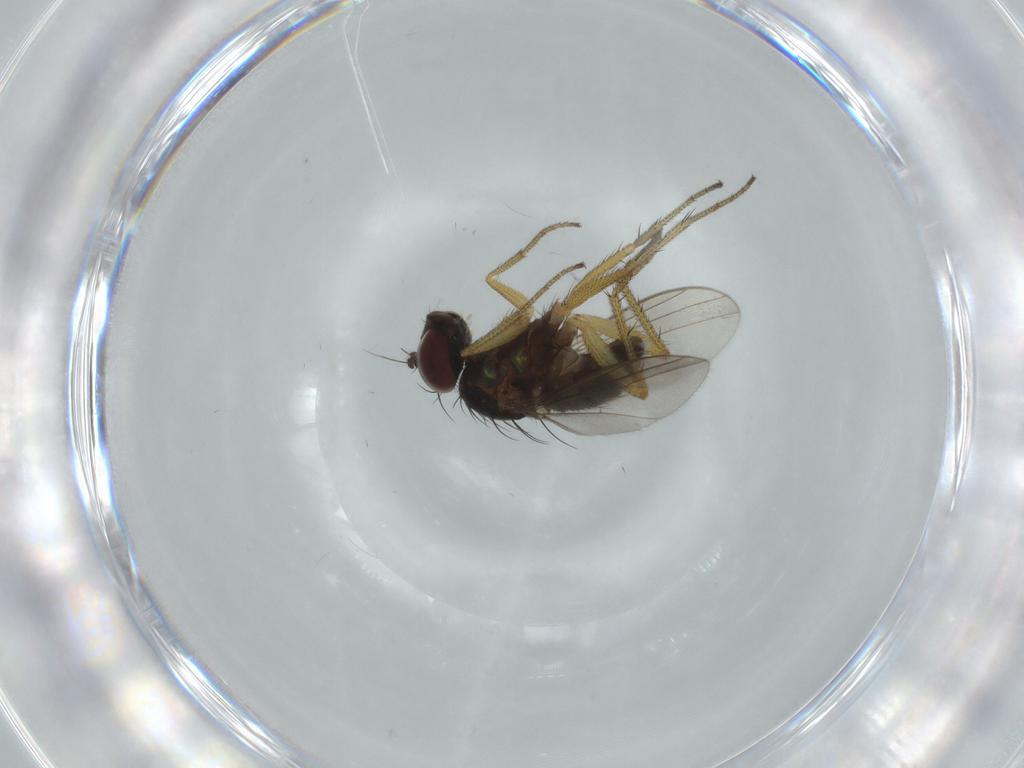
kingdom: Animalia
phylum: Arthropoda
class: Insecta
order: Diptera
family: Dolichopodidae
